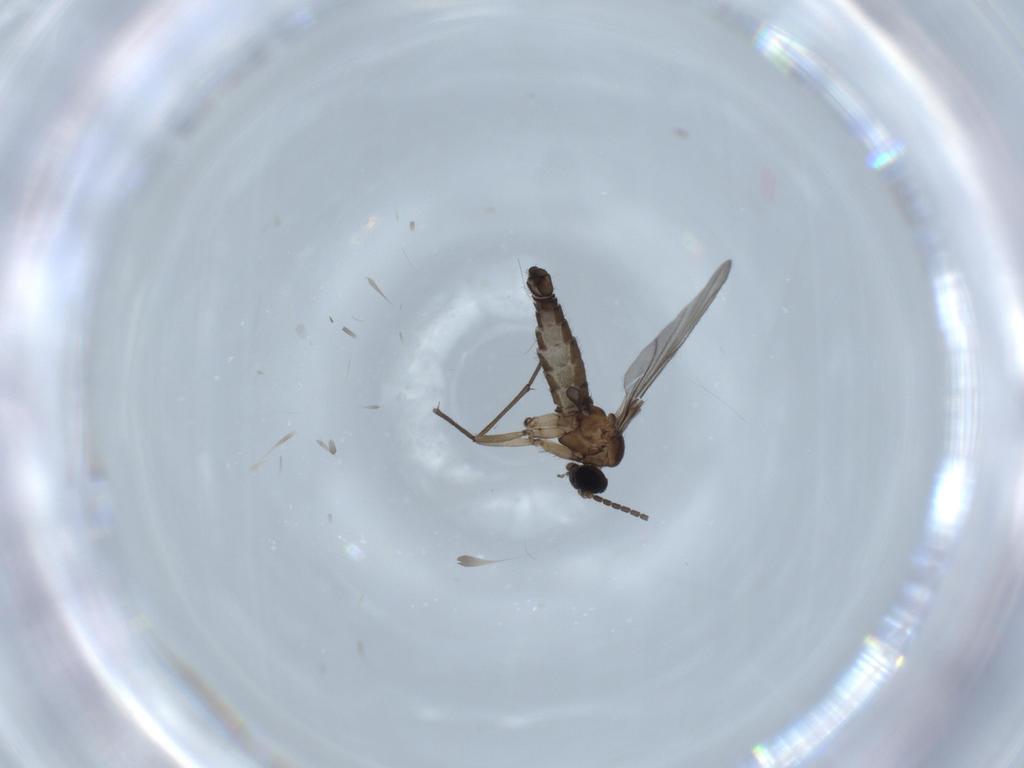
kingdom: Animalia
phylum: Arthropoda
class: Insecta
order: Diptera
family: Sciaridae
